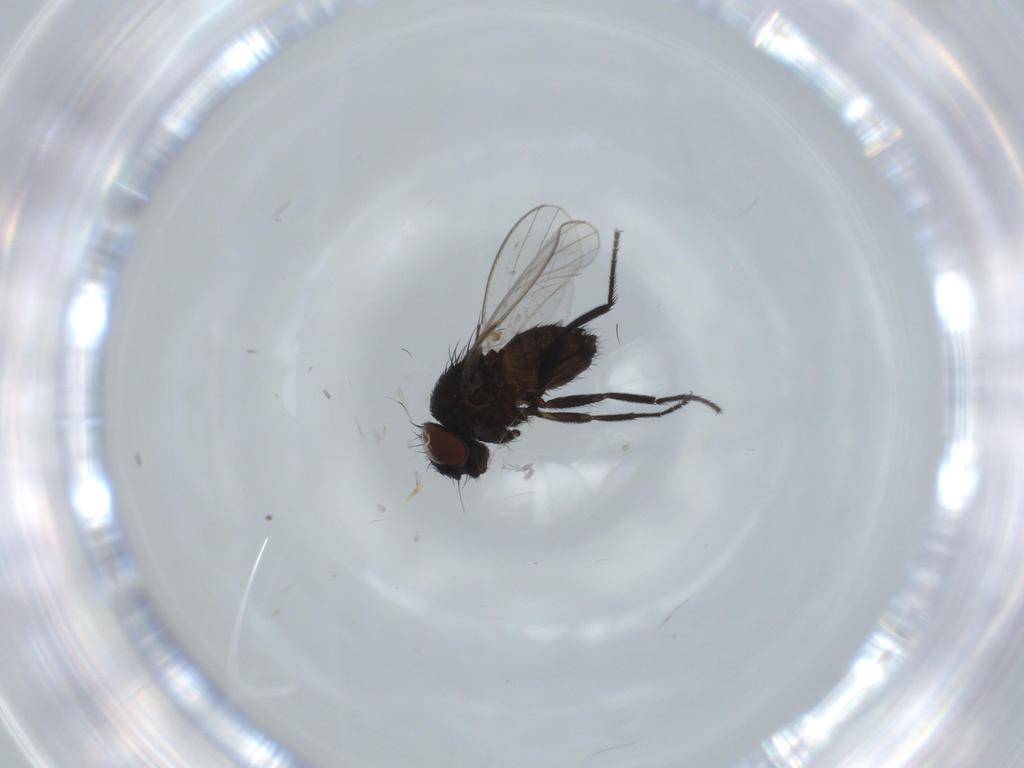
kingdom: Animalia
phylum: Arthropoda
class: Insecta
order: Diptera
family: Milichiidae
